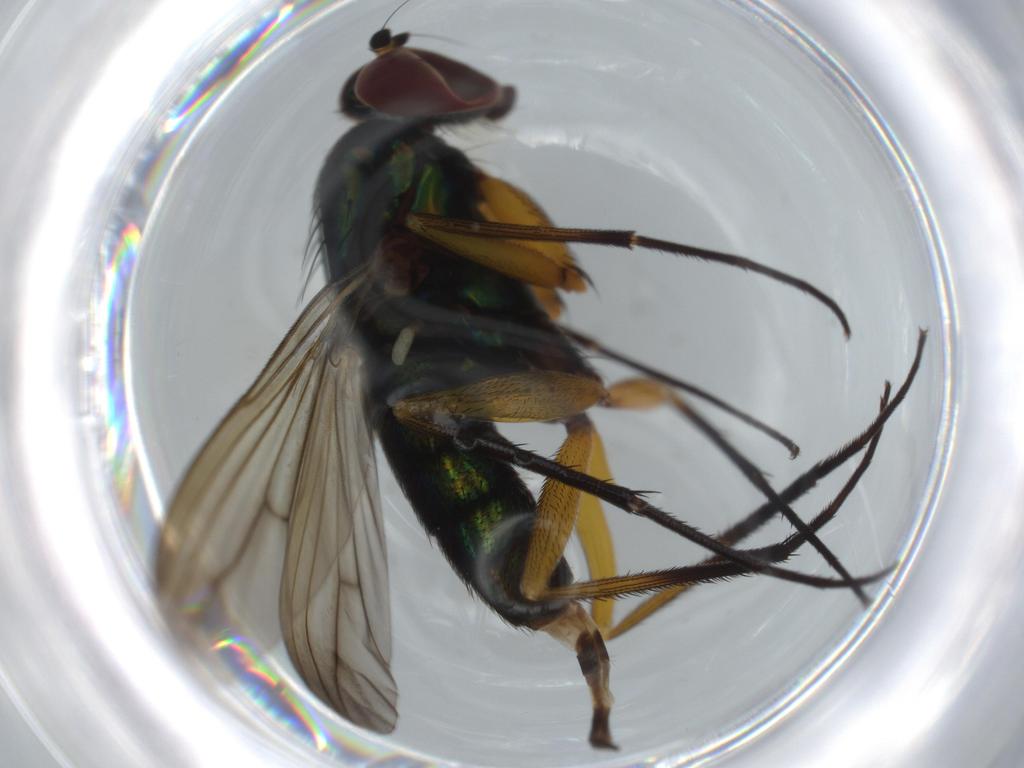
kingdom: Animalia
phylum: Arthropoda
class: Insecta
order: Diptera
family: Dolichopodidae
